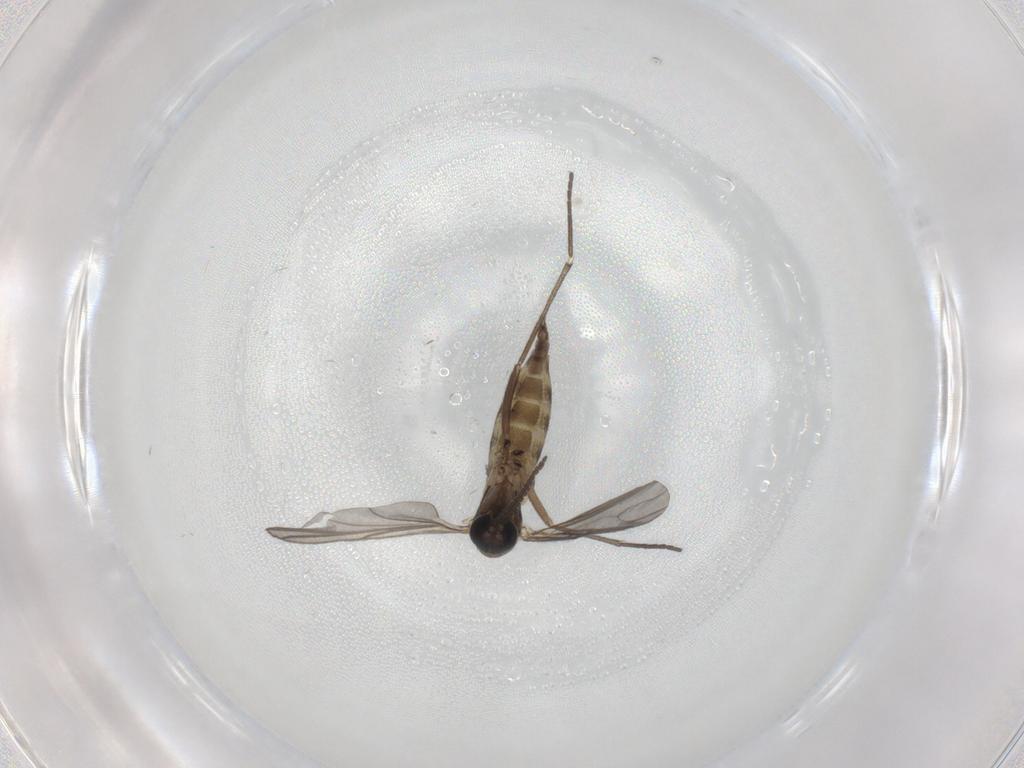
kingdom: Animalia
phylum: Arthropoda
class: Insecta
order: Diptera
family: Sciaridae
